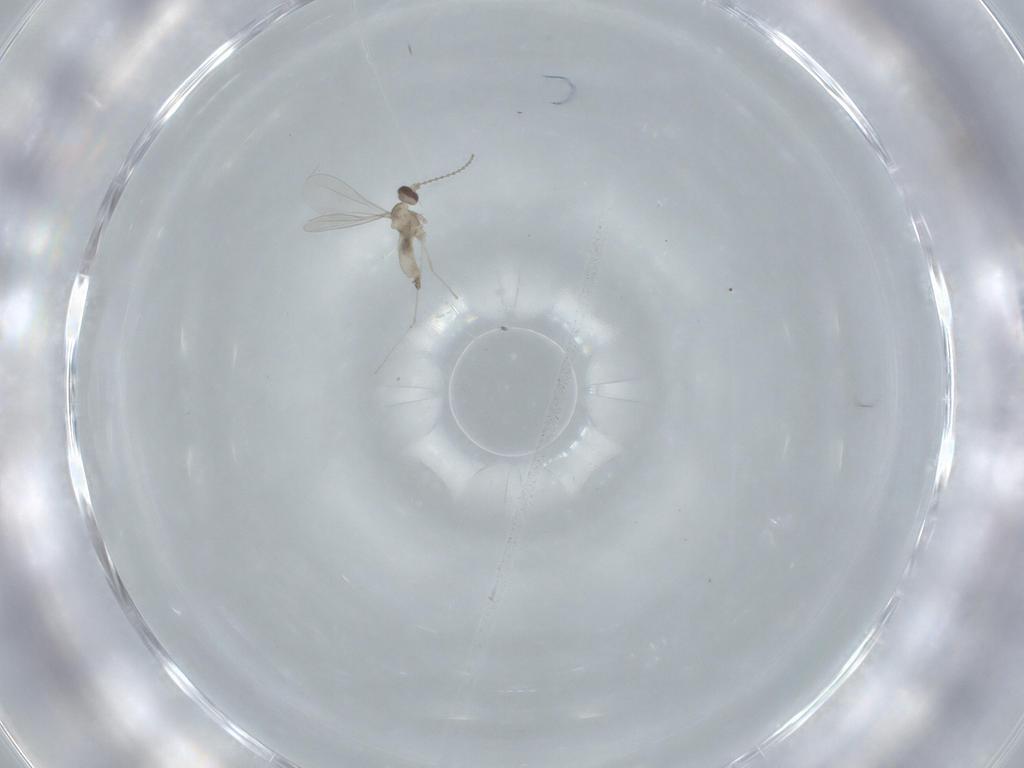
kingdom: Animalia
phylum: Arthropoda
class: Insecta
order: Diptera
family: Cecidomyiidae
